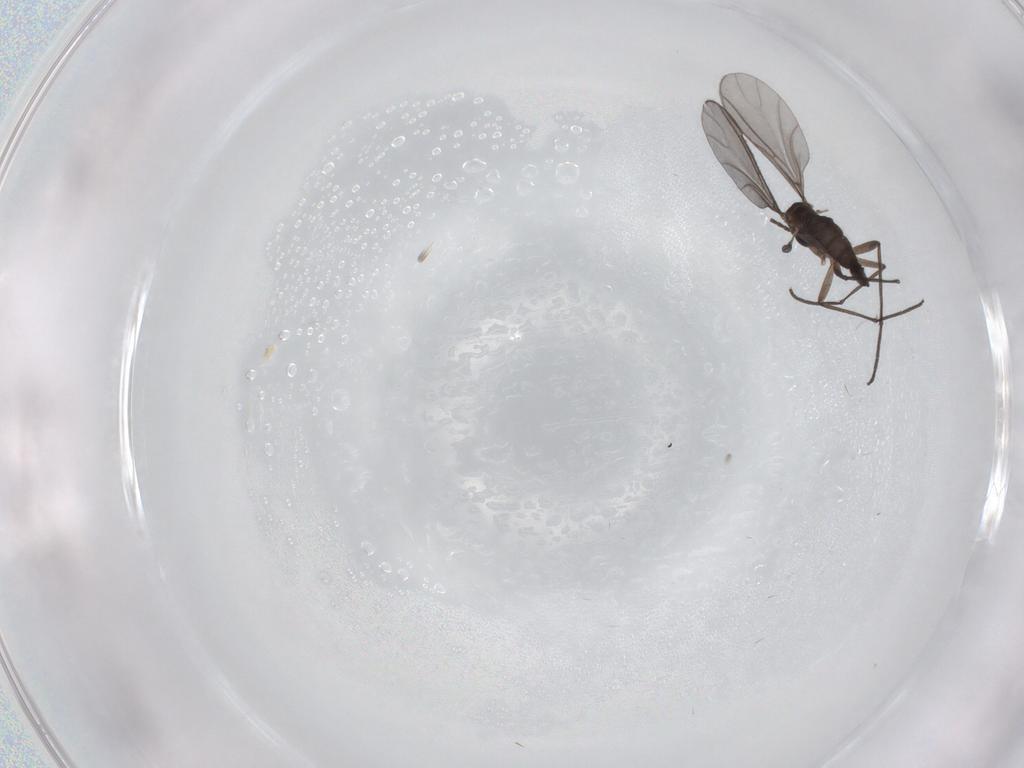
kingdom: Animalia
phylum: Arthropoda
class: Insecta
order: Diptera
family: Sciaridae
